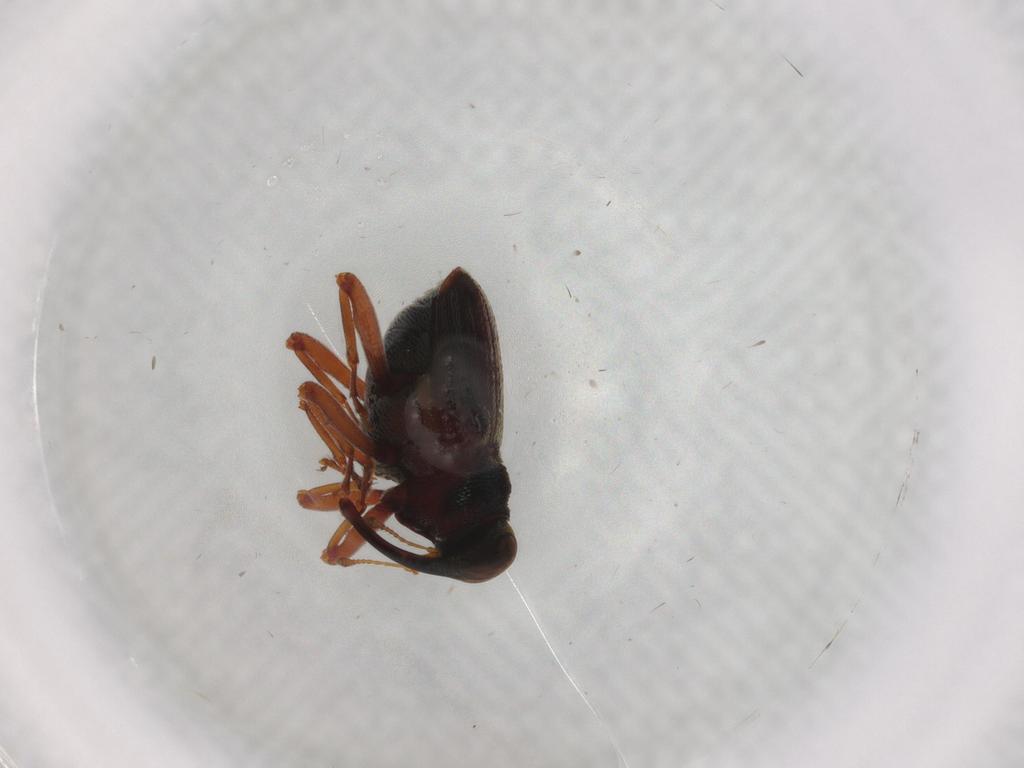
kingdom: Animalia
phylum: Arthropoda
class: Insecta
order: Coleoptera
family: Curculionidae
